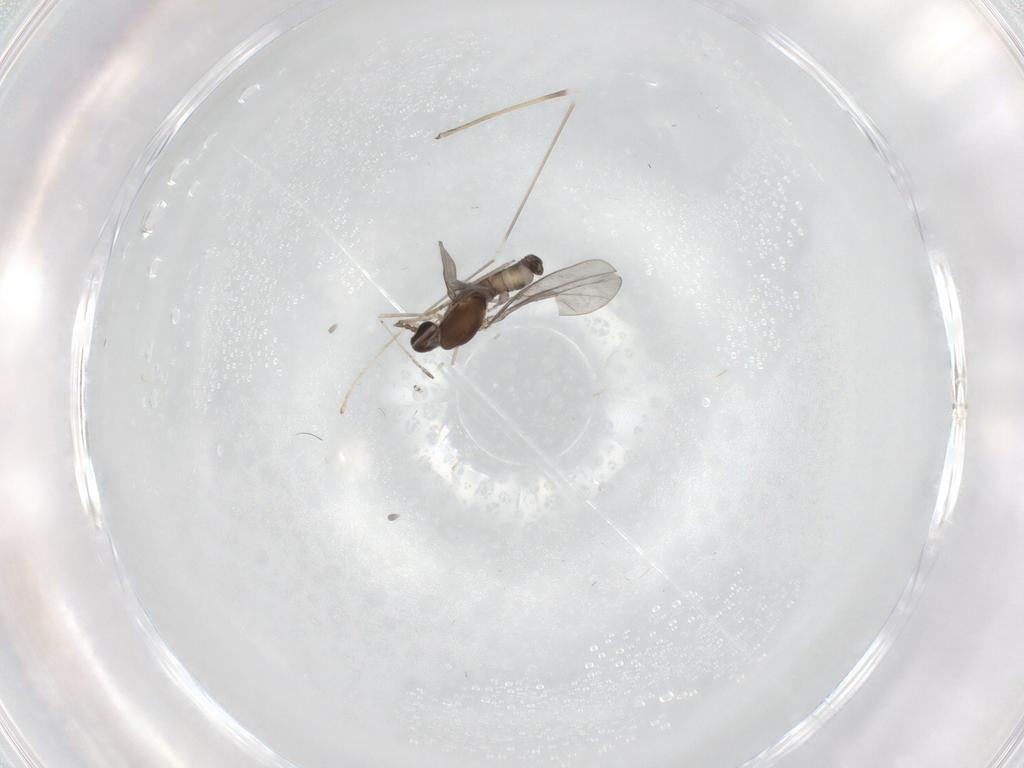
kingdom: Animalia
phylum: Arthropoda
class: Insecta
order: Diptera
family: Limoniidae
